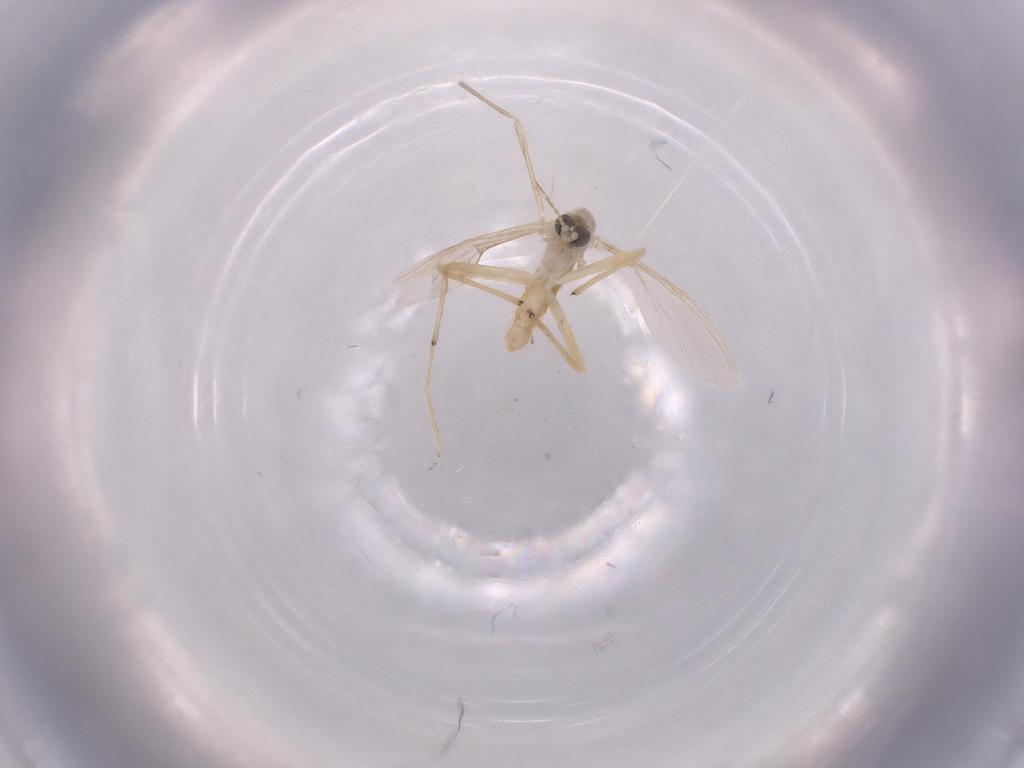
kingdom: Animalia
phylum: Arthropoda
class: Insecta
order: Diptera
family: Chironomidae
